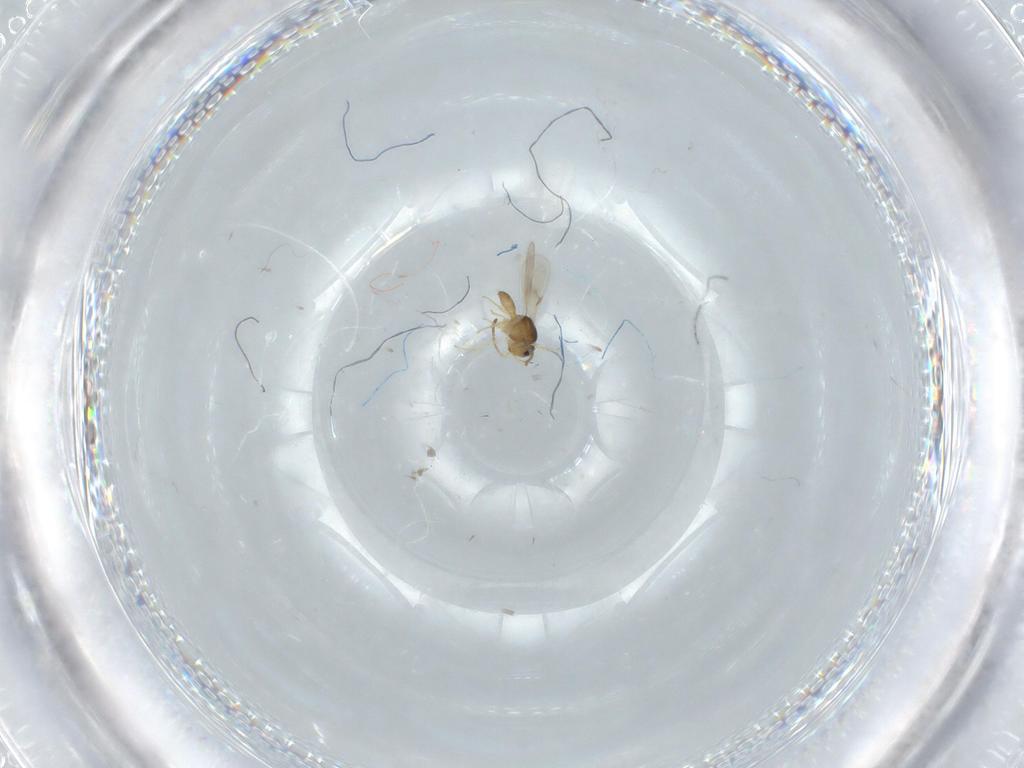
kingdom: Animalia
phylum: Arthropoda
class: Insecta
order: Hymenoptera
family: Scelionidae
